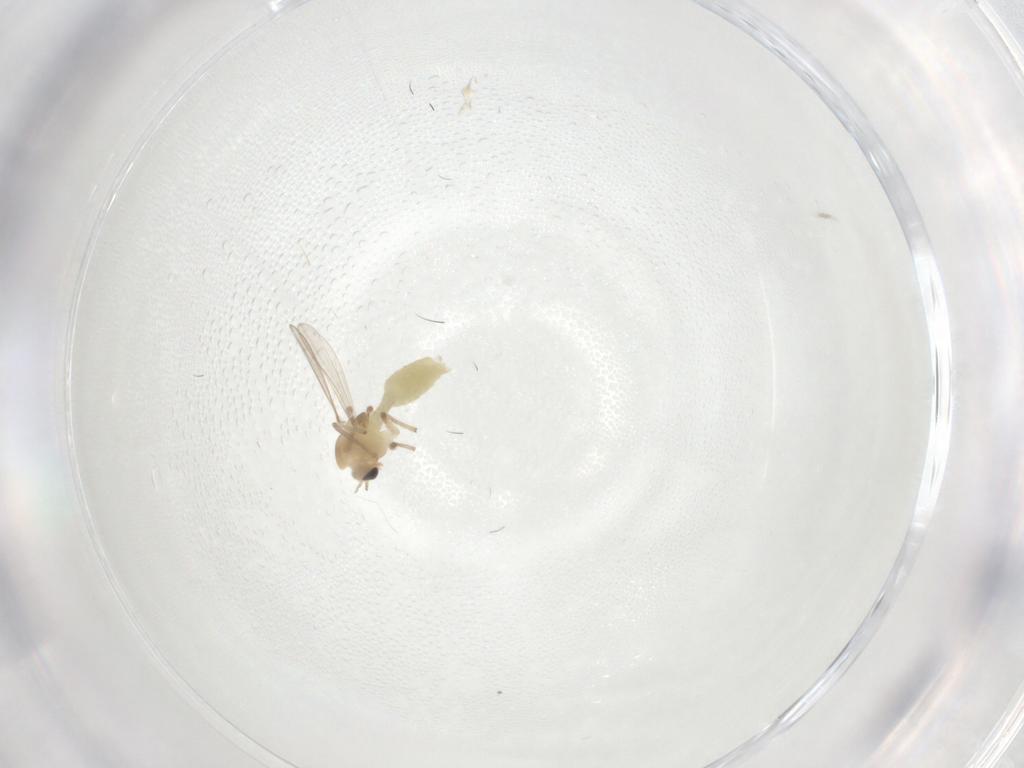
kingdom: Animalia
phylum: Arthropoda
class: Insecta
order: Diptera
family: Chironomidae
